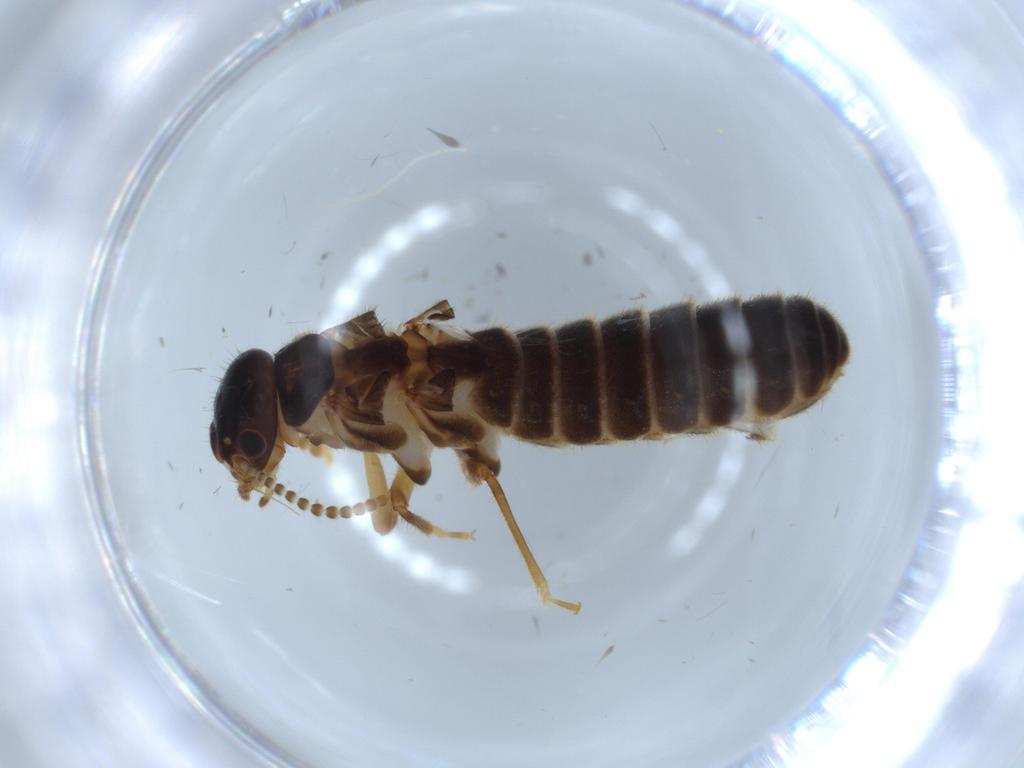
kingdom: Animalia
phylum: Arthropoda
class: Insecta
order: Blattodea
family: Termitidae
